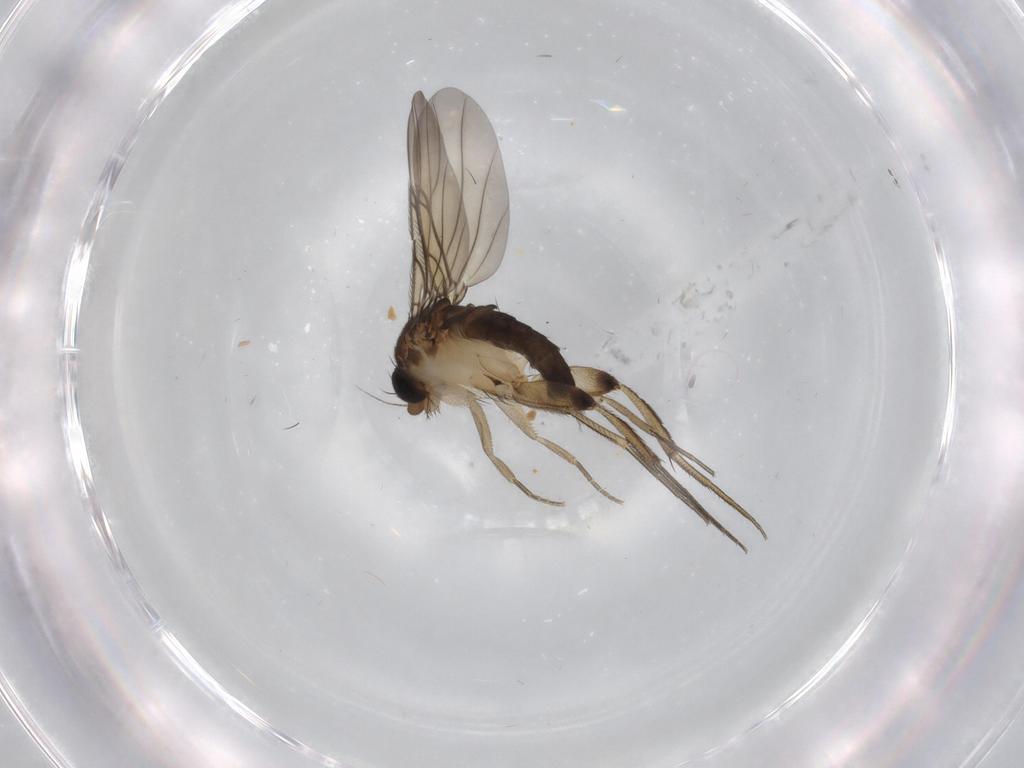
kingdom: Animalia
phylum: Arthropoda
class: Insecta
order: Diptera
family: Phoridae
